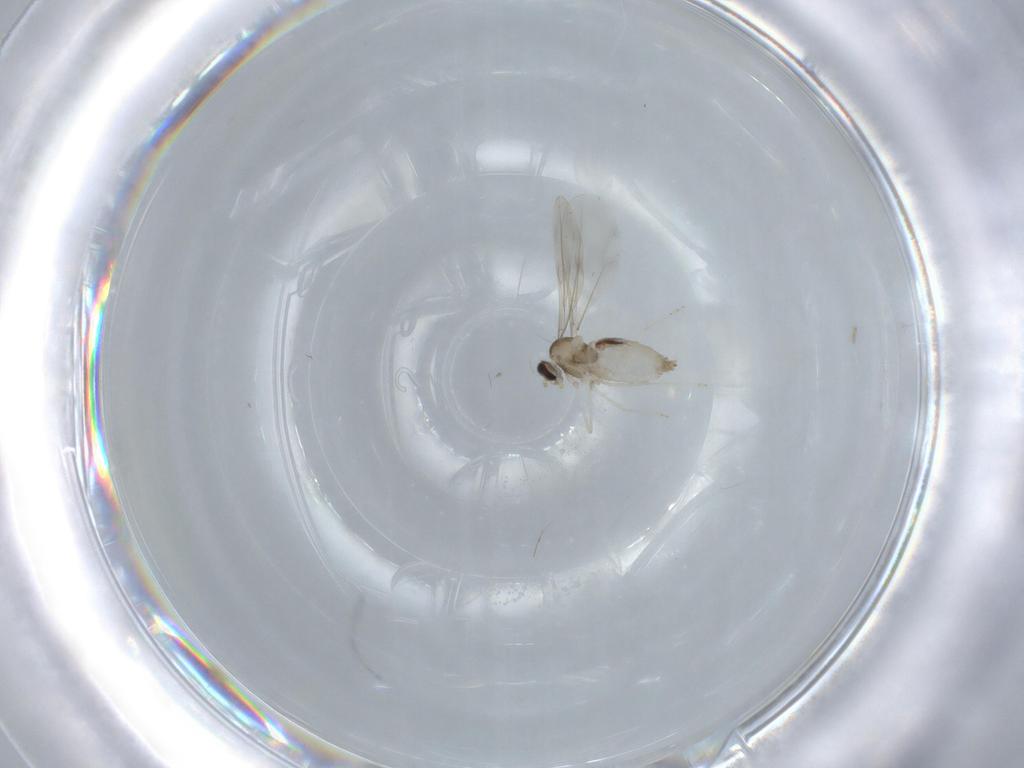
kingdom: Animalia
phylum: Arthropoda
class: Insecta
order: Diptera
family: Cecidomyiidae
